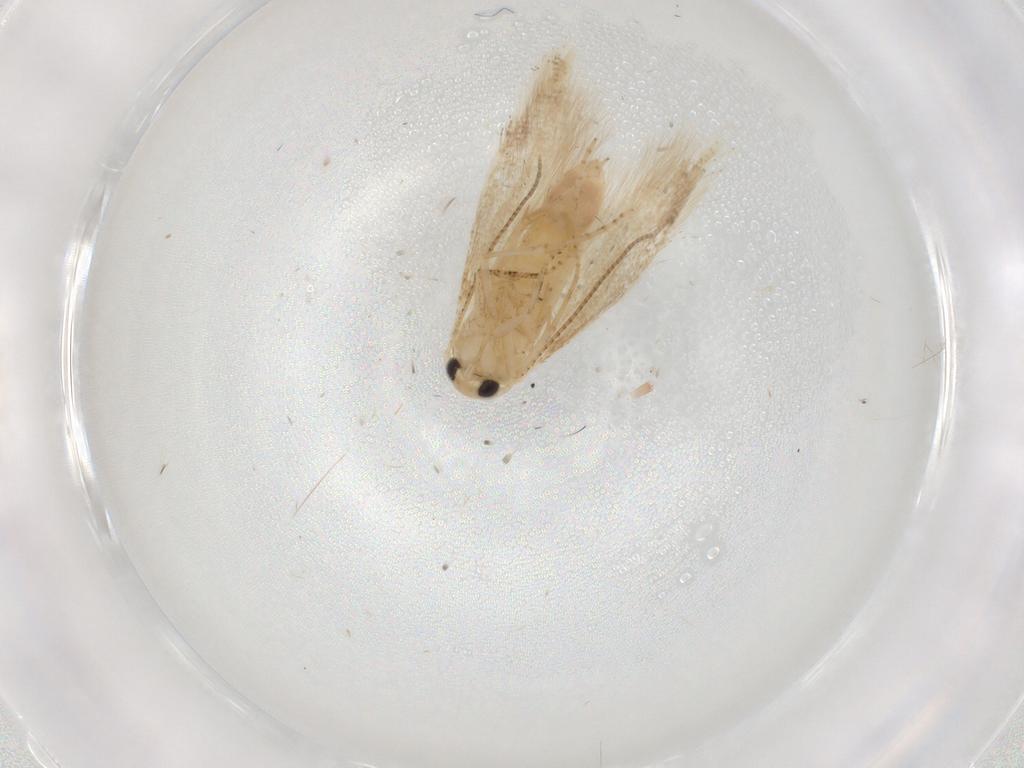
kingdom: Animalia
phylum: Arthropoda
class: Insecta
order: Lepidoptera
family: Bucculatricidae
